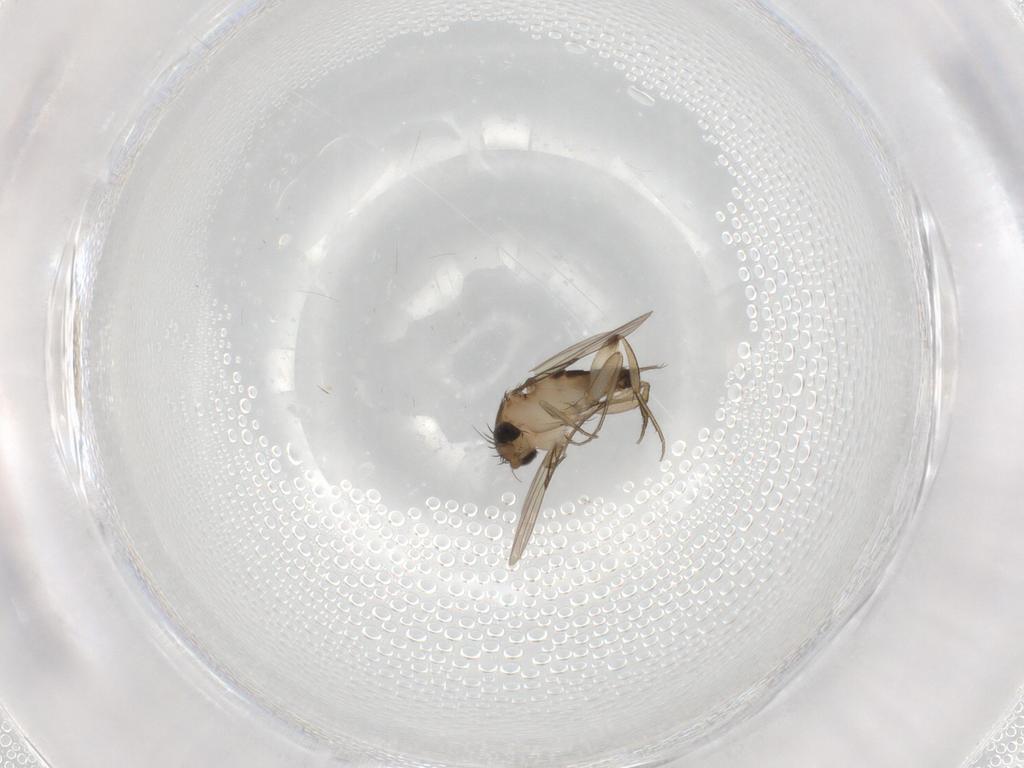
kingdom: Animalia
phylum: Arthropoda
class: Insecta
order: Diptera
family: Phoridae
